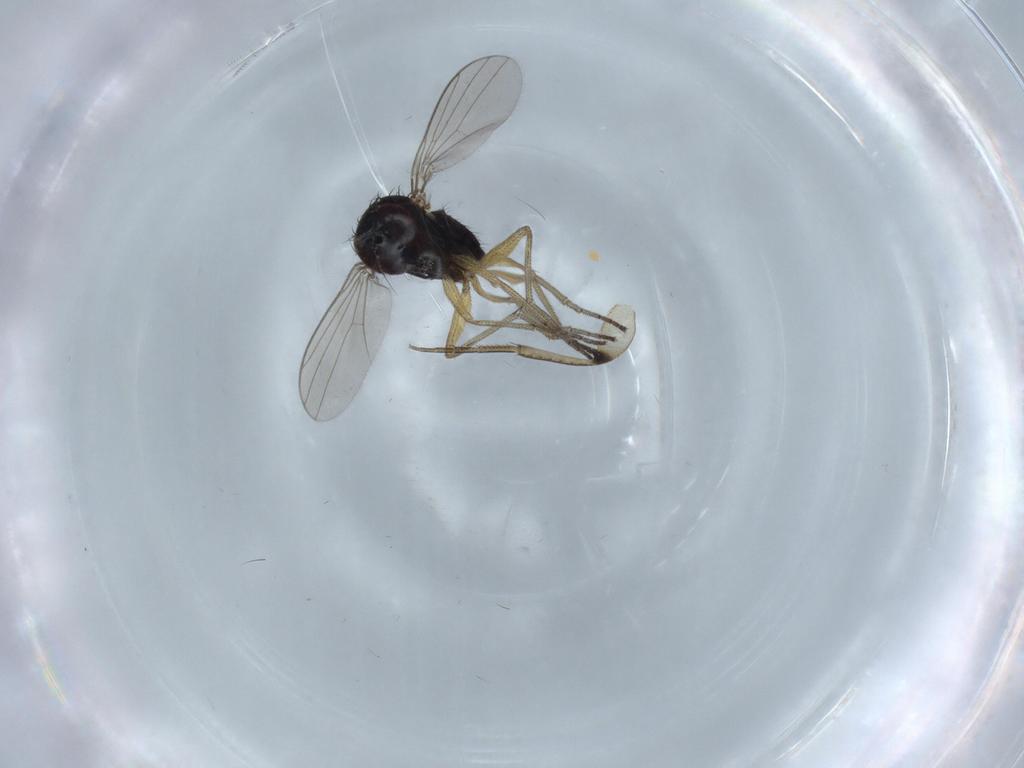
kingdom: Animalia
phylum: Arthropoda
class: Insecta
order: Diptera
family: Dolichopodidae
